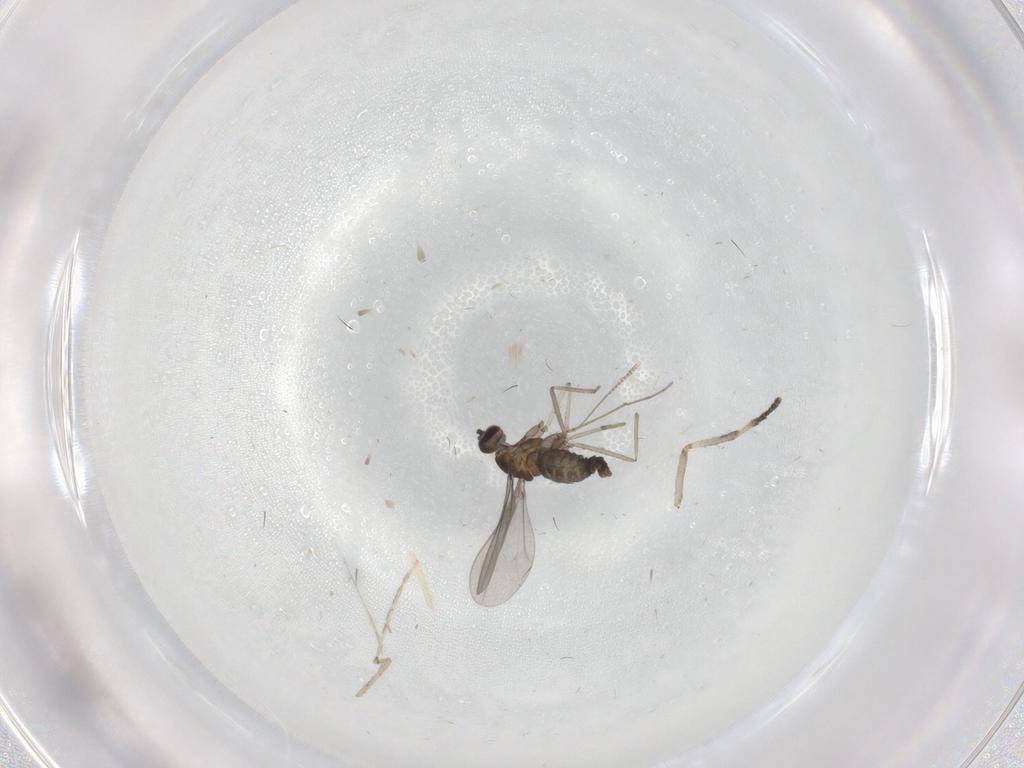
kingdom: Animalia
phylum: Arthropoda
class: Insecta
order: Diptera
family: Cecidomyiidae
